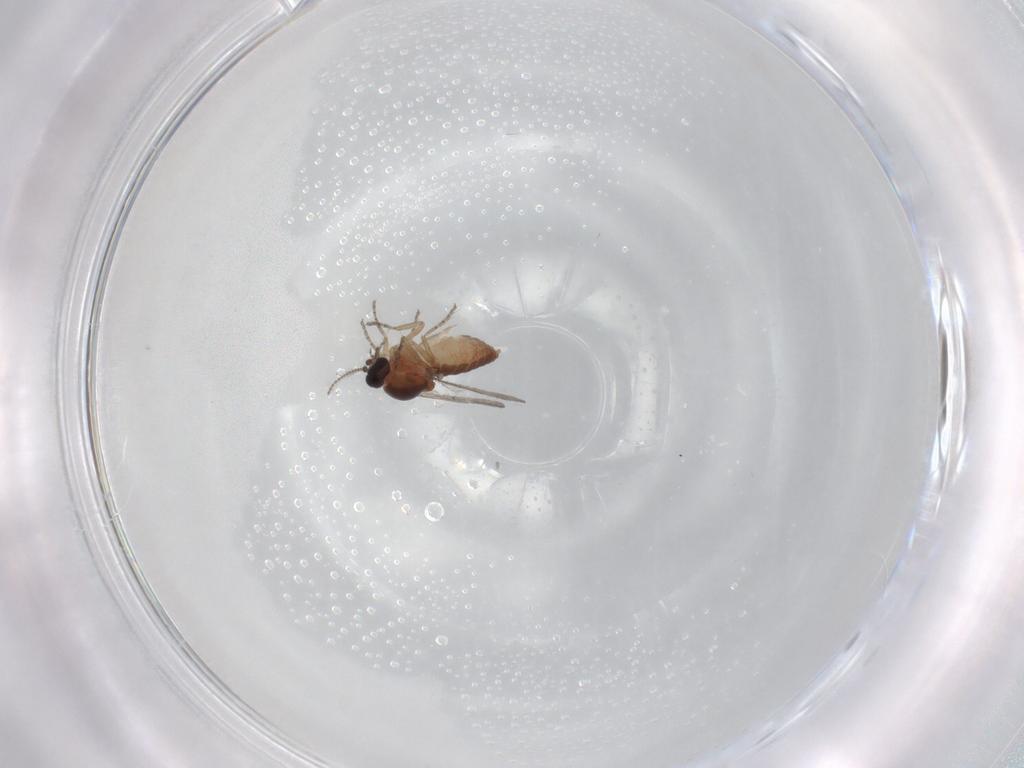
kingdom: Animalia
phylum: Arthropoda
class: Insecta
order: Diptera
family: Ceratopogonidae
